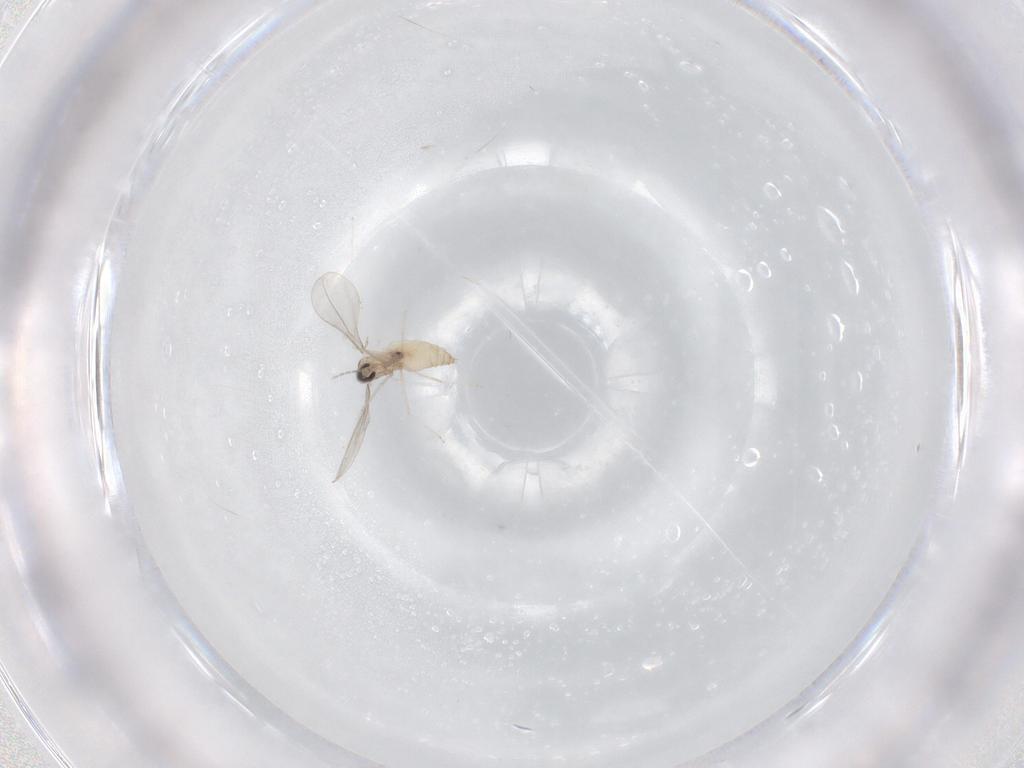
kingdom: Animalia
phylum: Arthropoda
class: Insecta
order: Diptera
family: Cecidomyiidae
